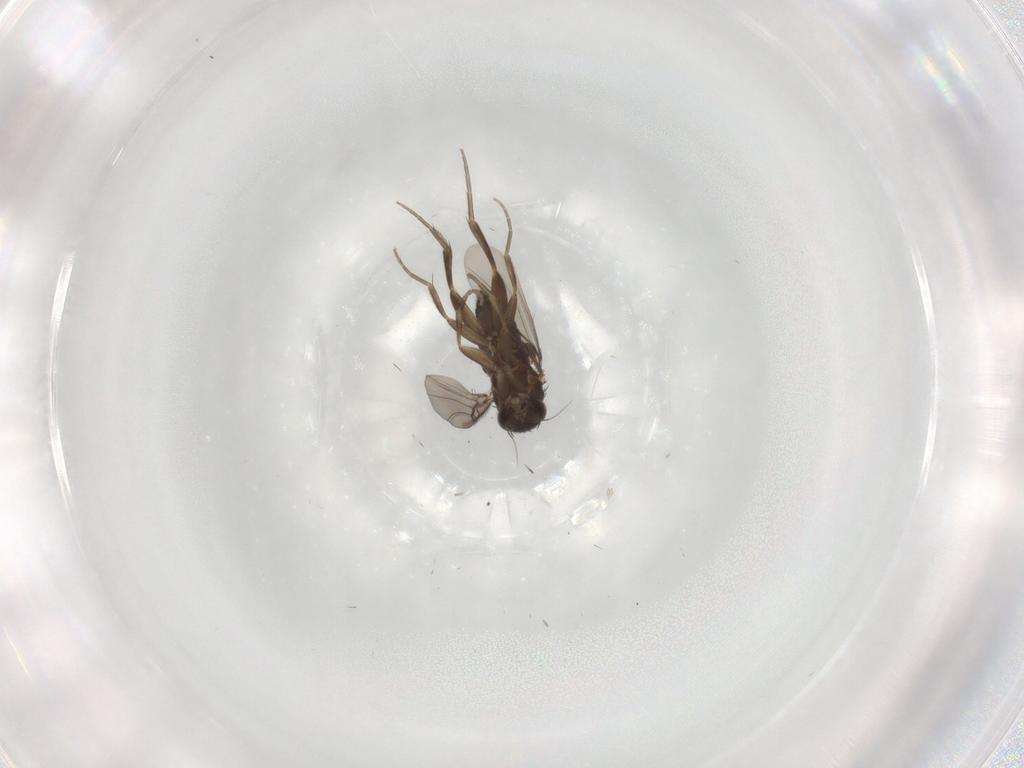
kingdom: Animalia
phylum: Arthropoda
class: Insecta
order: Diptera
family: Phoridae
